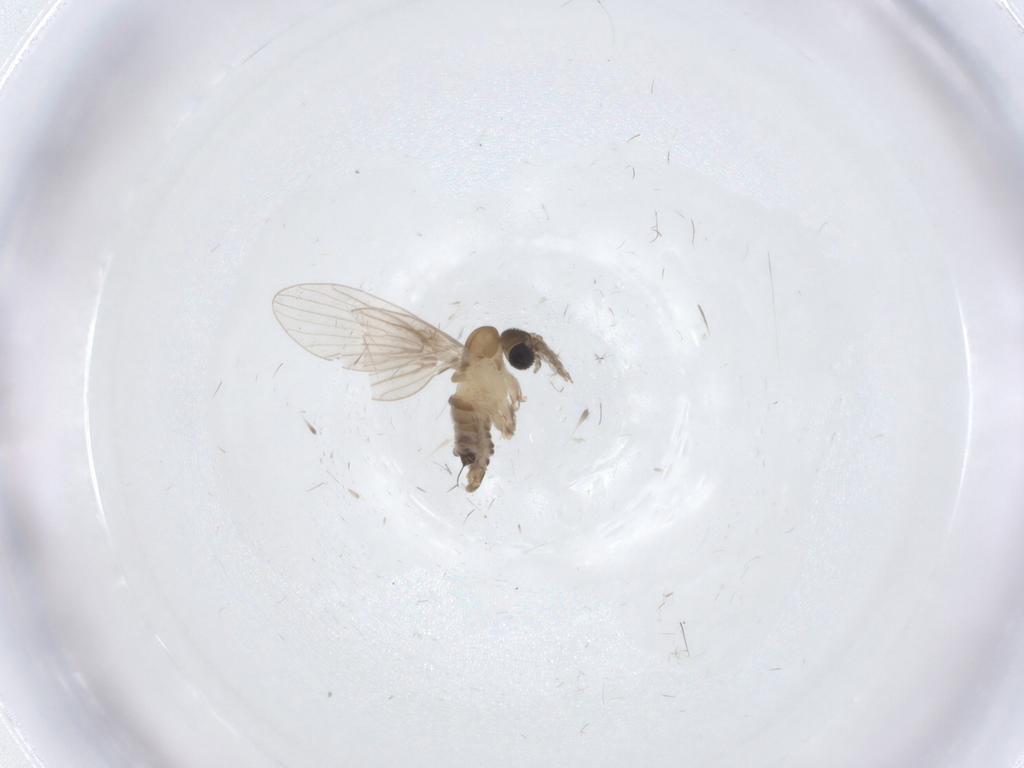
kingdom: Animalia
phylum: Arthropoda
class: Insecta
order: Diptera
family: Psychodidae
